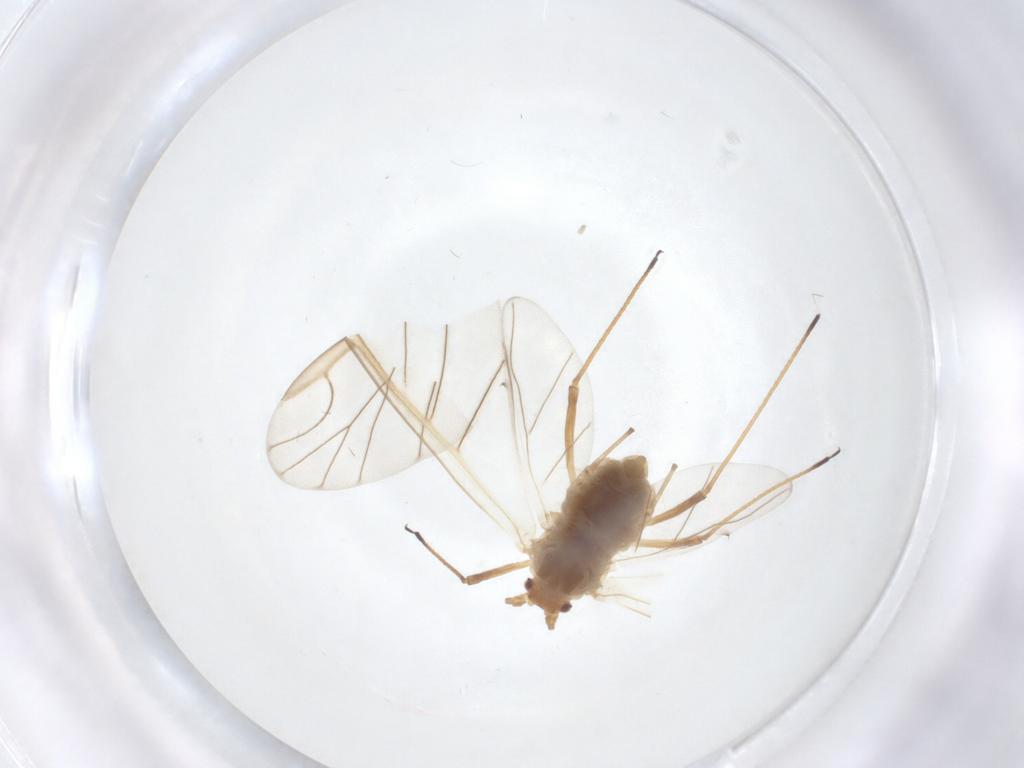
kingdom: Animalia
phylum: Arthropoda
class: Insecta
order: Hemiptera
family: Aphididae
